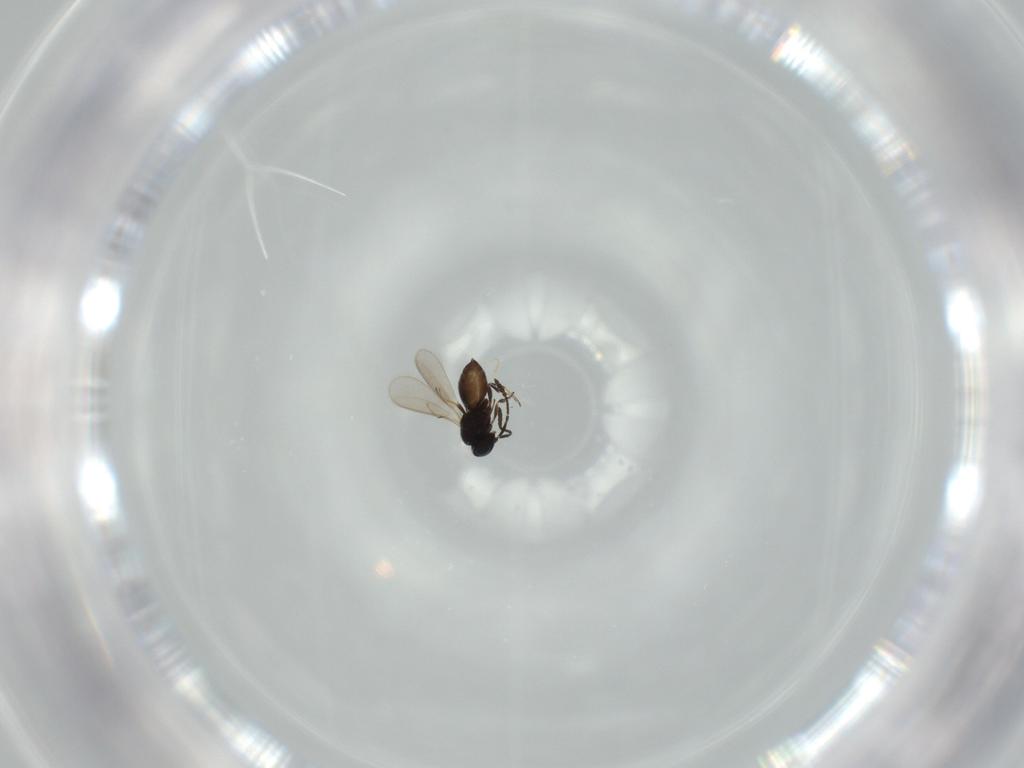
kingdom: Animalia
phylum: Arthropoda
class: Insecta
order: Hymenoptera
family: Scelionidae
